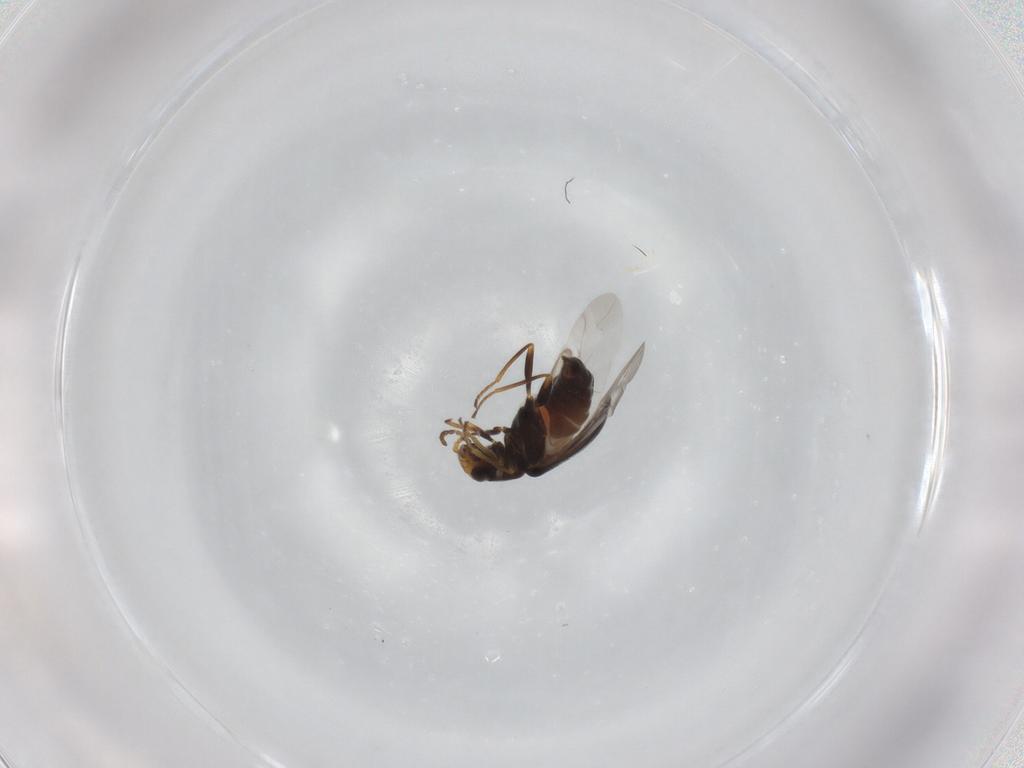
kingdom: Animalia
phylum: Arthropoda
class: Insecta
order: Coleoptera
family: Melyridae
